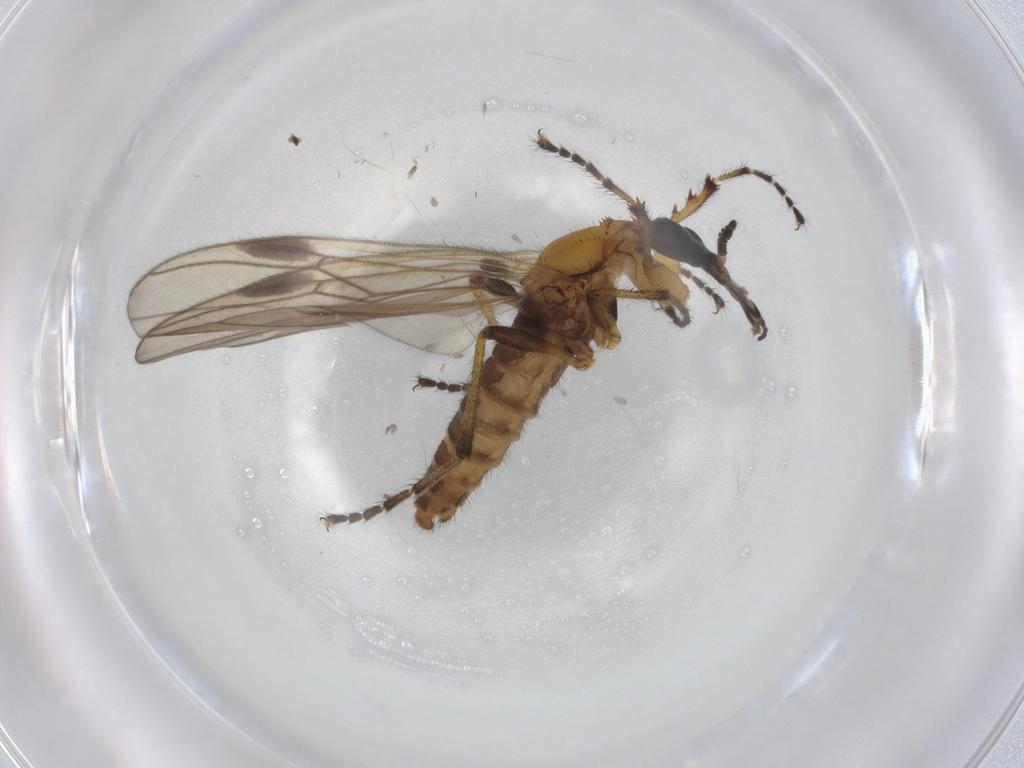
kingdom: Animalia
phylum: Arthropoda
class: Insecta
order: Diptera
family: Bibionidae
